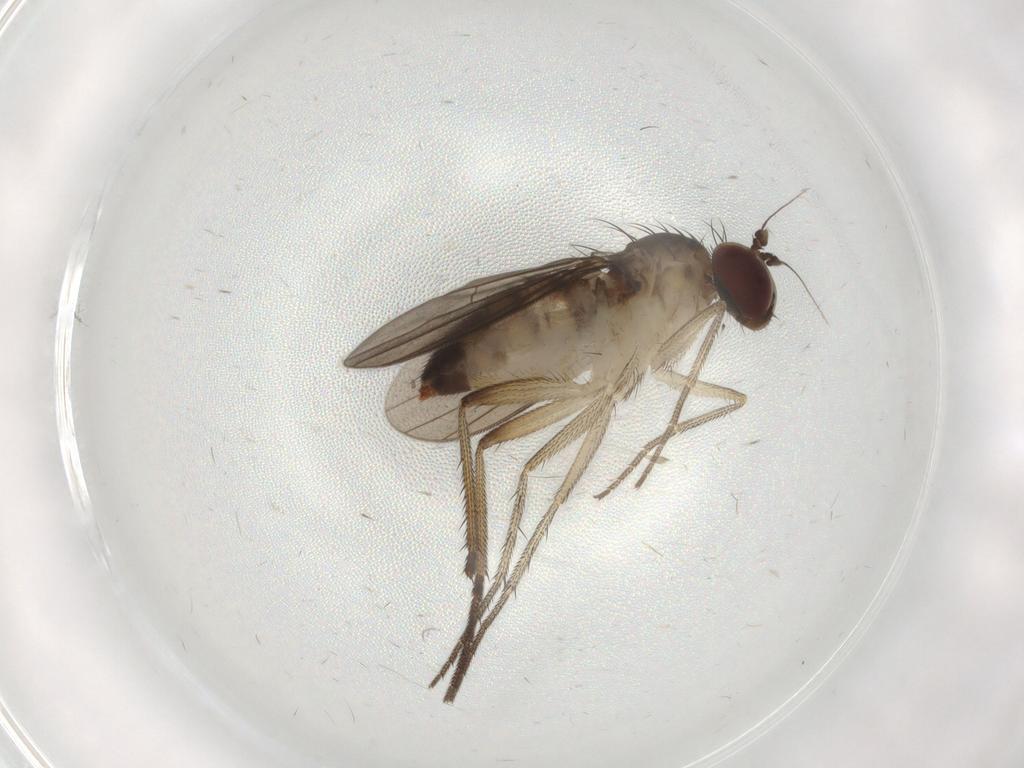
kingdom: Animalia
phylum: Arthropoda
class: Insecta
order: Diptera
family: Dolichopodidae
